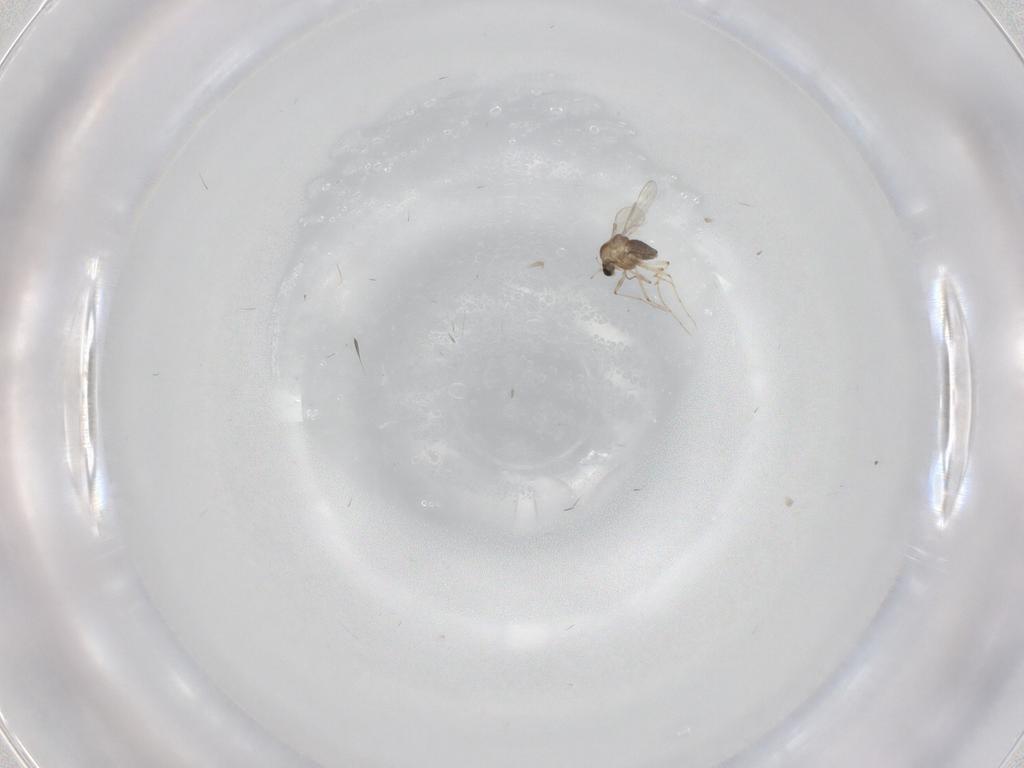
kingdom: Animalia
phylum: Arthropoda
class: Insecta
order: Diptera
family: Chironomidae
